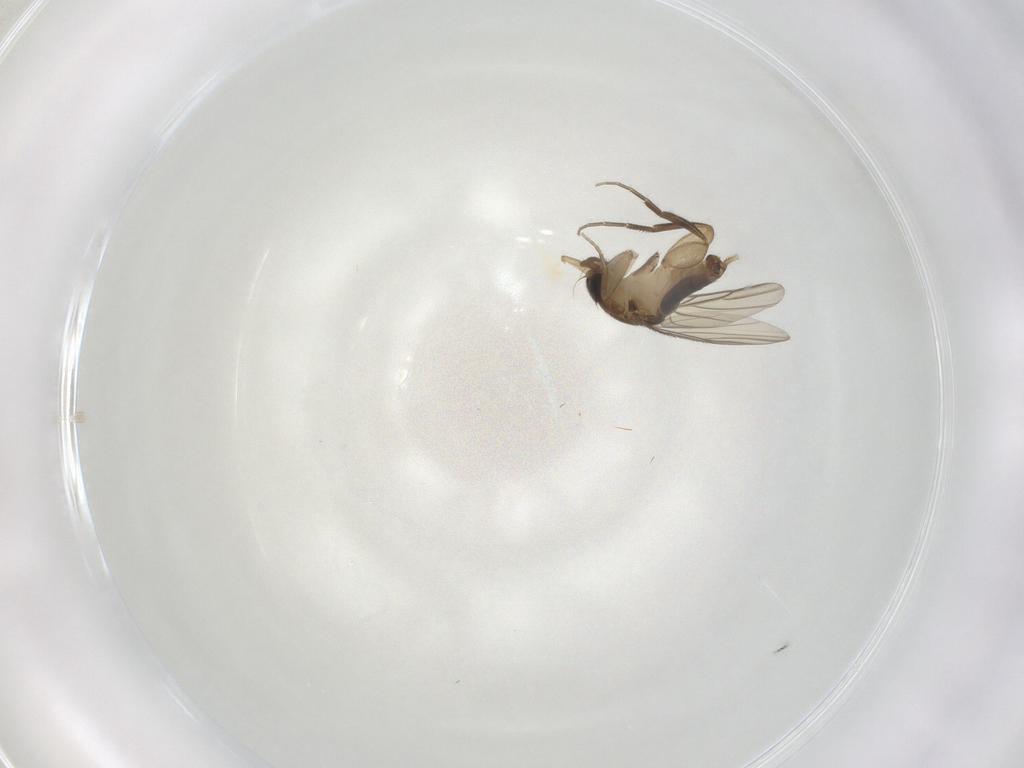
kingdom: Animalia
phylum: Arthropoda
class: Insecta
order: Diptera
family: Phoridae
